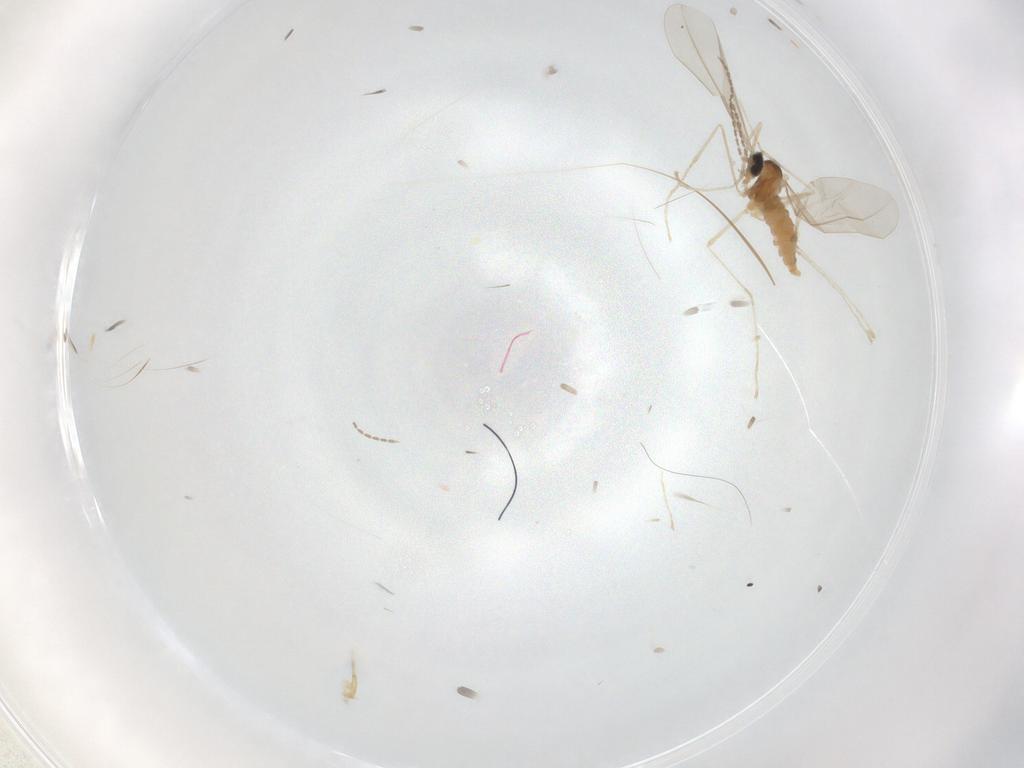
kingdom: Animalia
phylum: Arthropoda
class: Insecta
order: Diptera
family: Cecidomyiidae
